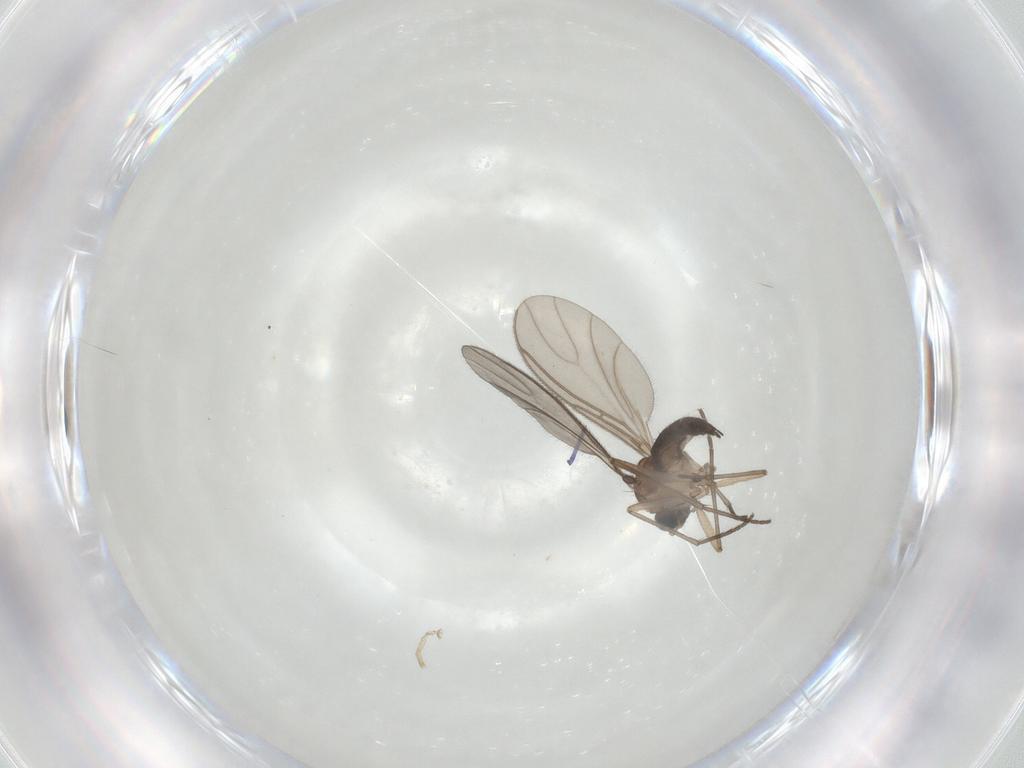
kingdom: Animalia
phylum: Arthropoda
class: Insecta
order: Diptera
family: Sciaridae
